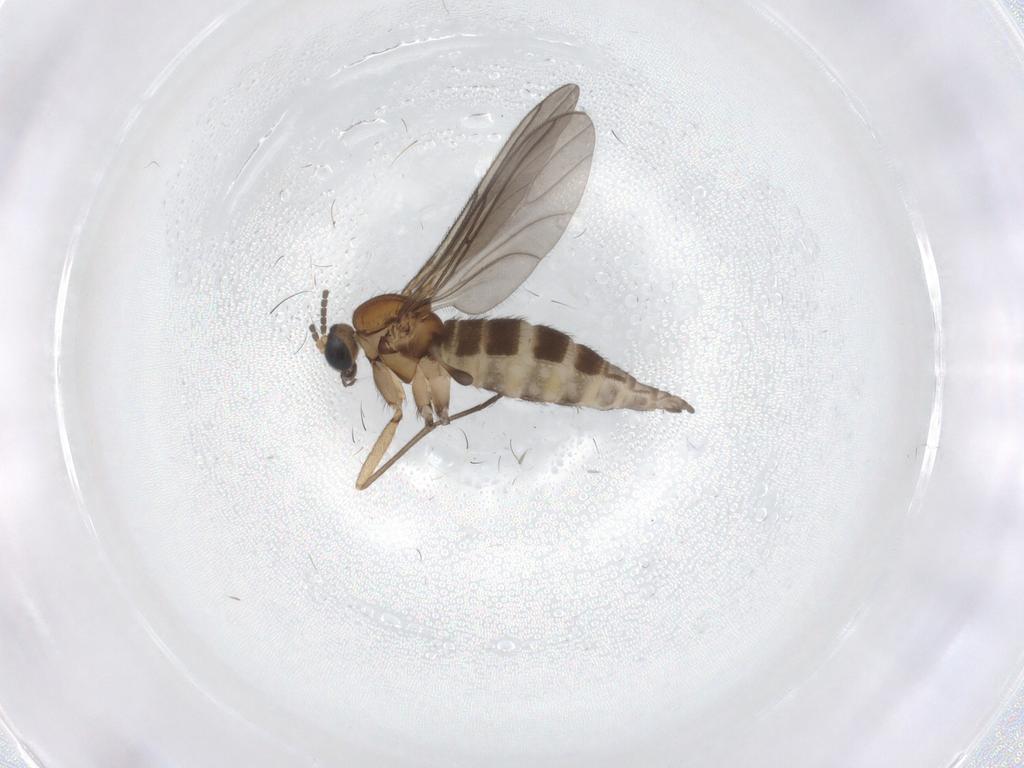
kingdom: Animalia
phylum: Arthropoda
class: Insecta
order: Diptera
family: Sciaridae
